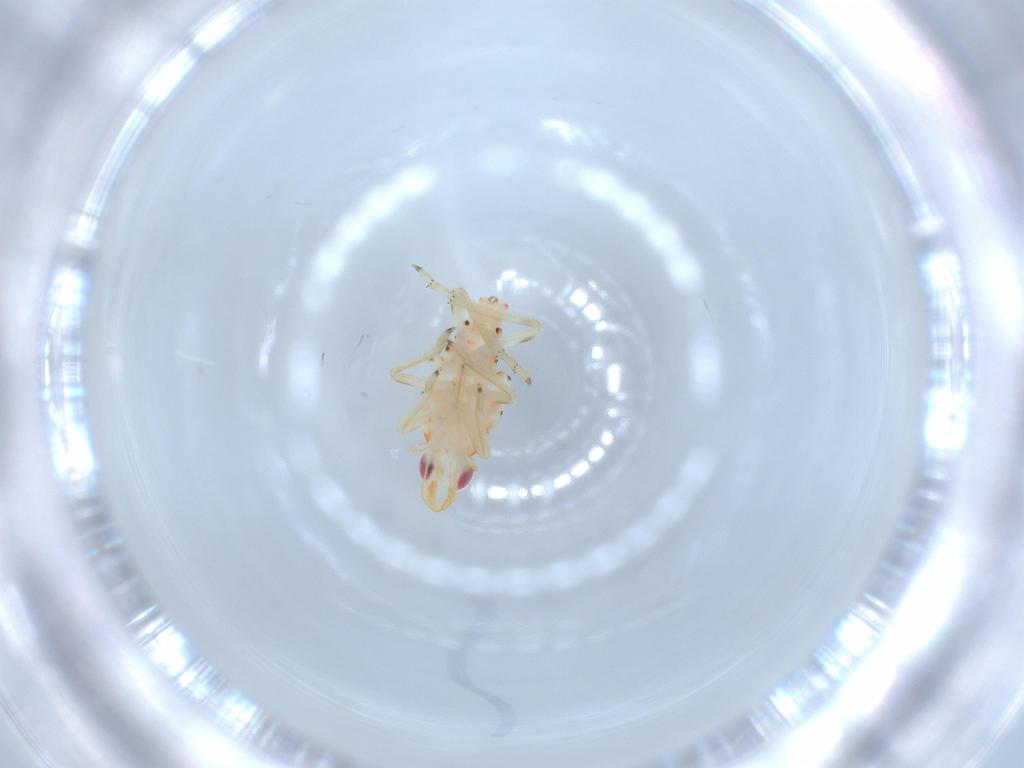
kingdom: Animalia
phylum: Arthropoda
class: Insecta
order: Hemiptera
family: Tropiduchidae
